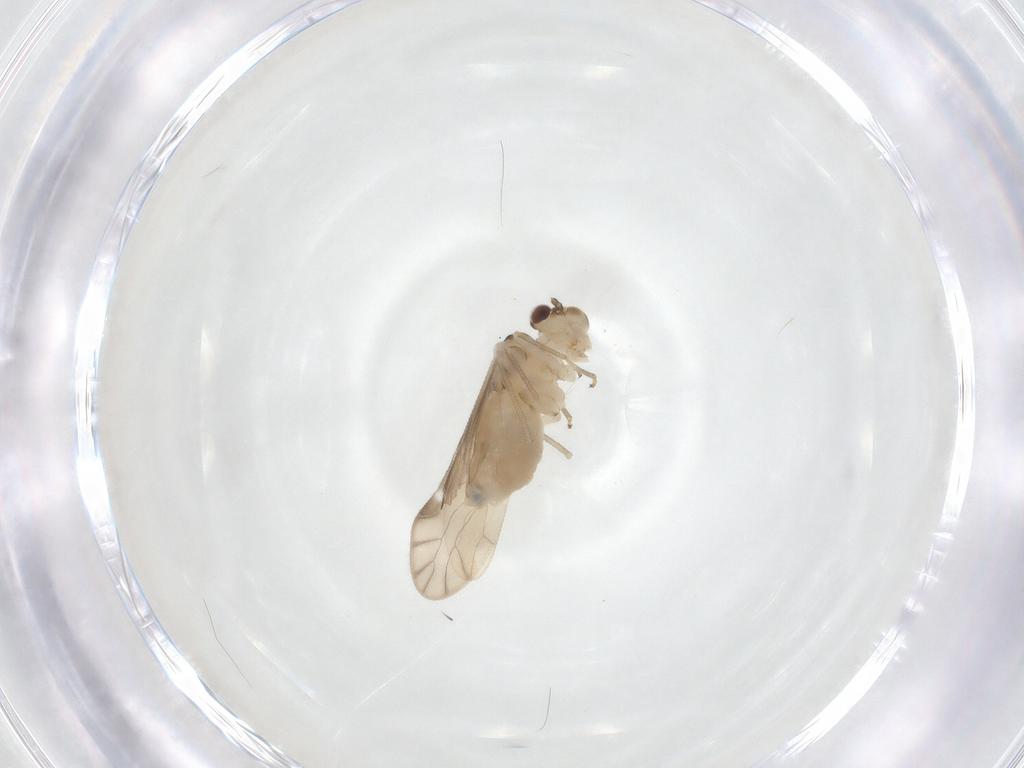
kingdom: Animalia
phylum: Arthropoda
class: Insecta
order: Psocodea
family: Caeciliusidae
